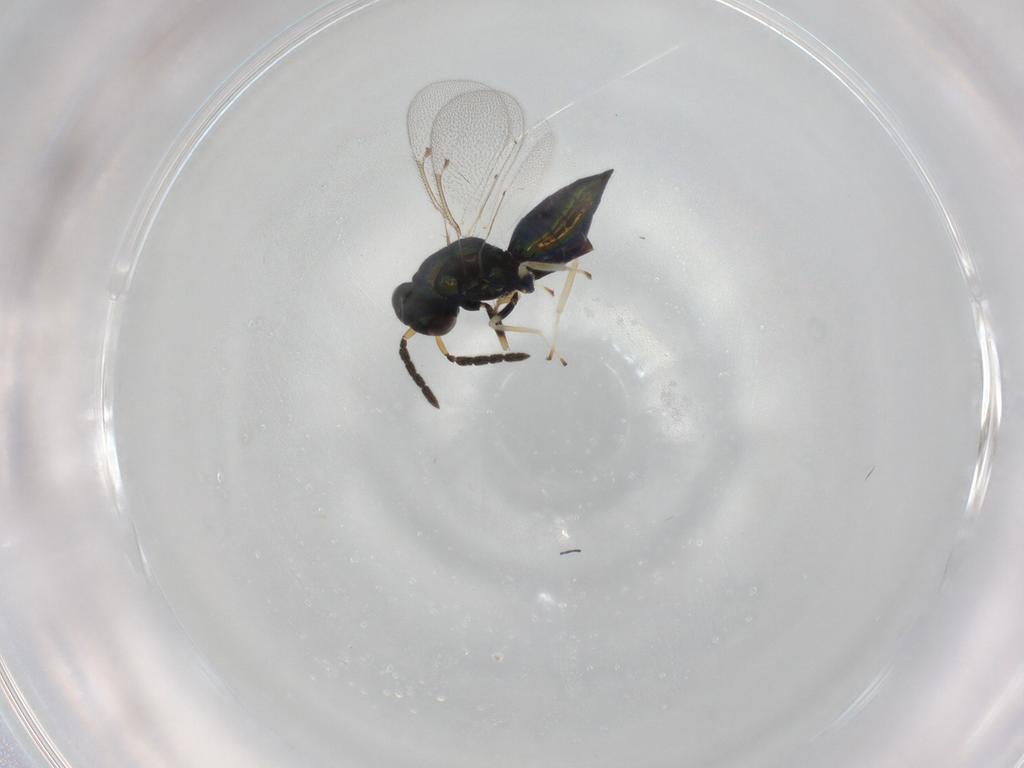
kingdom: Animalia
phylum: Arthropoda
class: Insecta
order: Hymenoptera
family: Eulophidae
